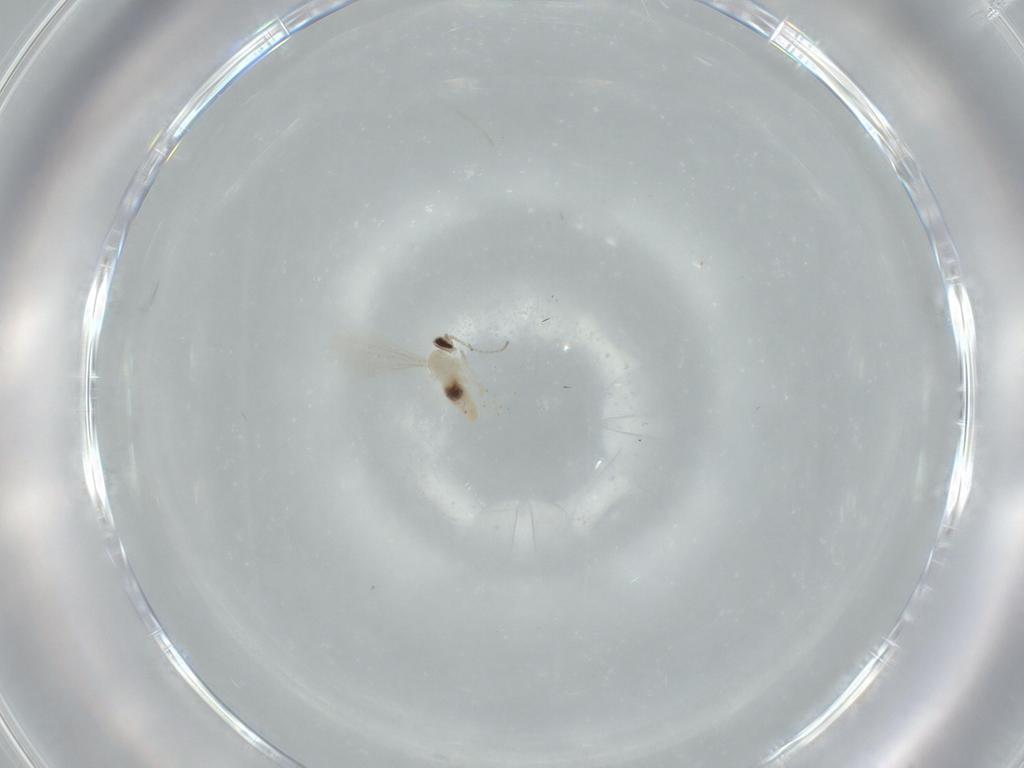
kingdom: Animalia
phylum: Arthropoda
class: Insecta
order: Diptera
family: Cecidomyiidae
